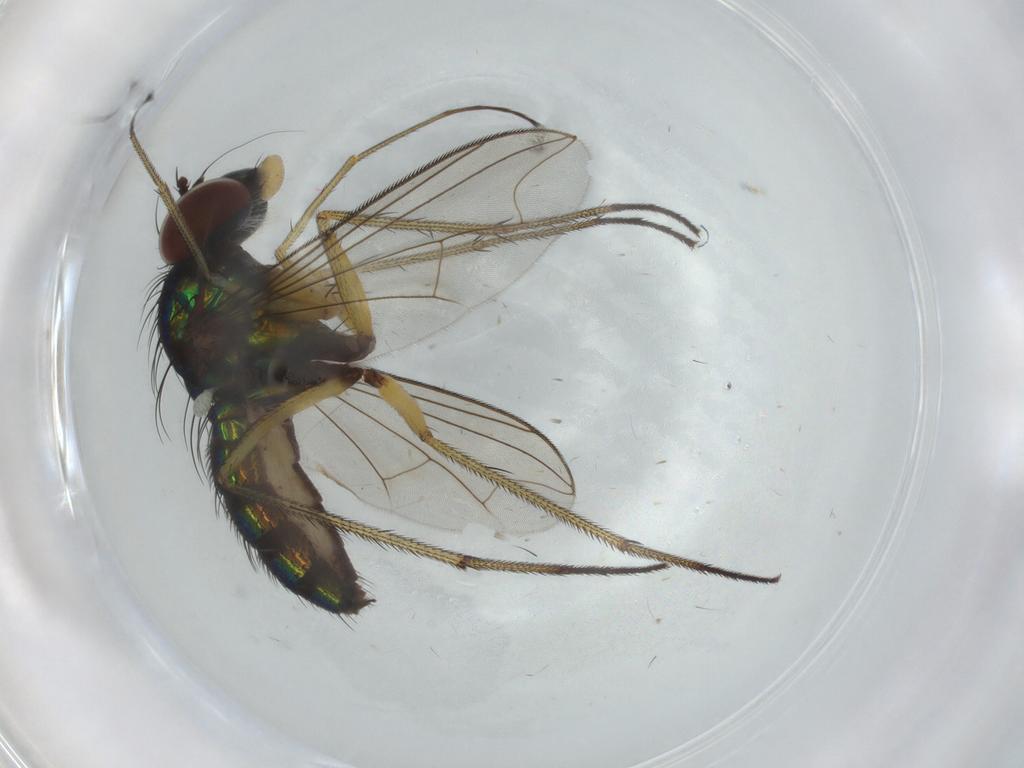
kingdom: Animalia
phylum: Arthropoda
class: Insecta
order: Diptera
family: Dolichopodidae
